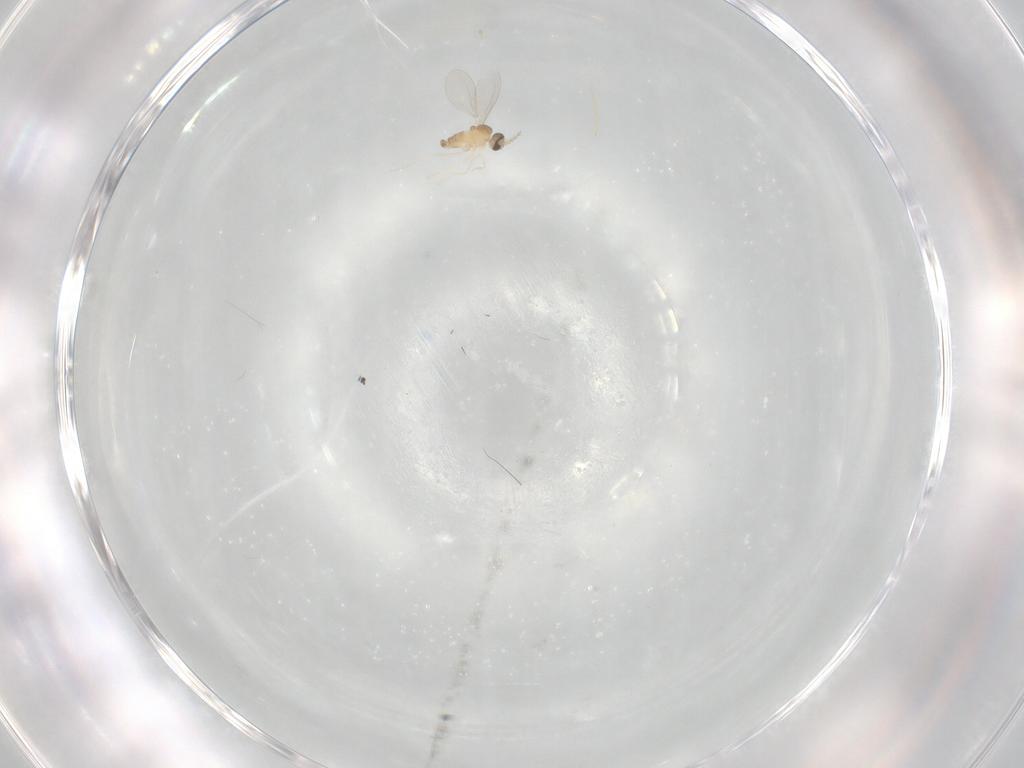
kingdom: Animalia
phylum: Arthropoda
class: Insecta
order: Diptera
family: Cecidomyiidae
